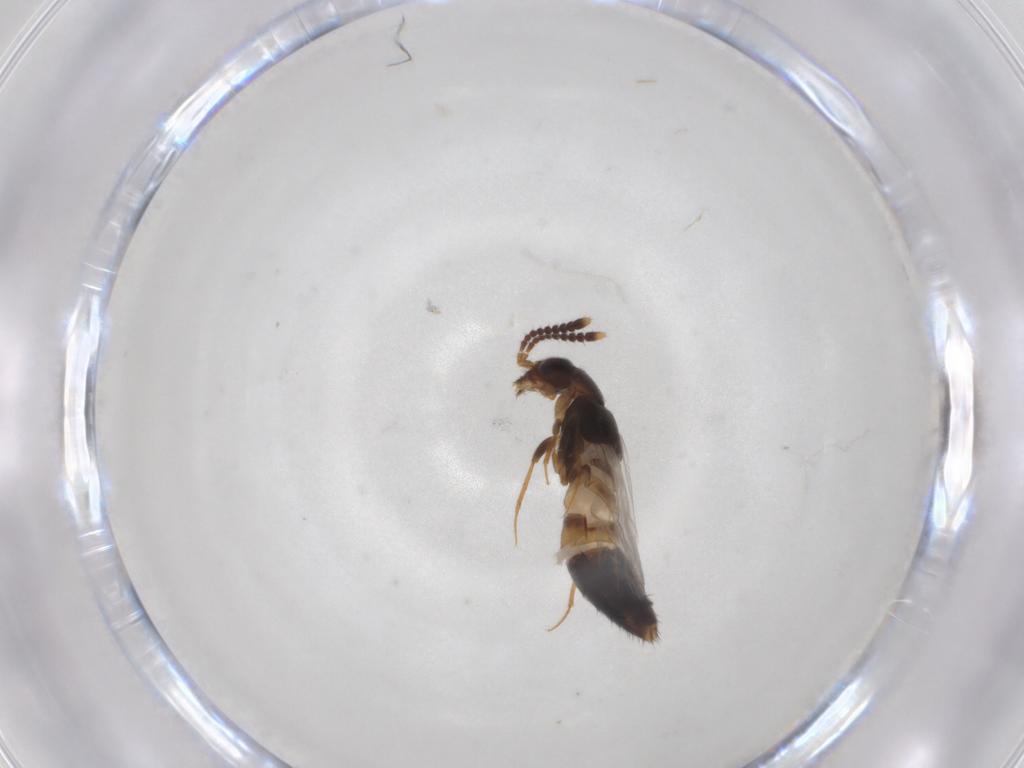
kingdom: Animalia
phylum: Arthropoda
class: Insecta
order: Coleoptera
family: Staphylinidae
